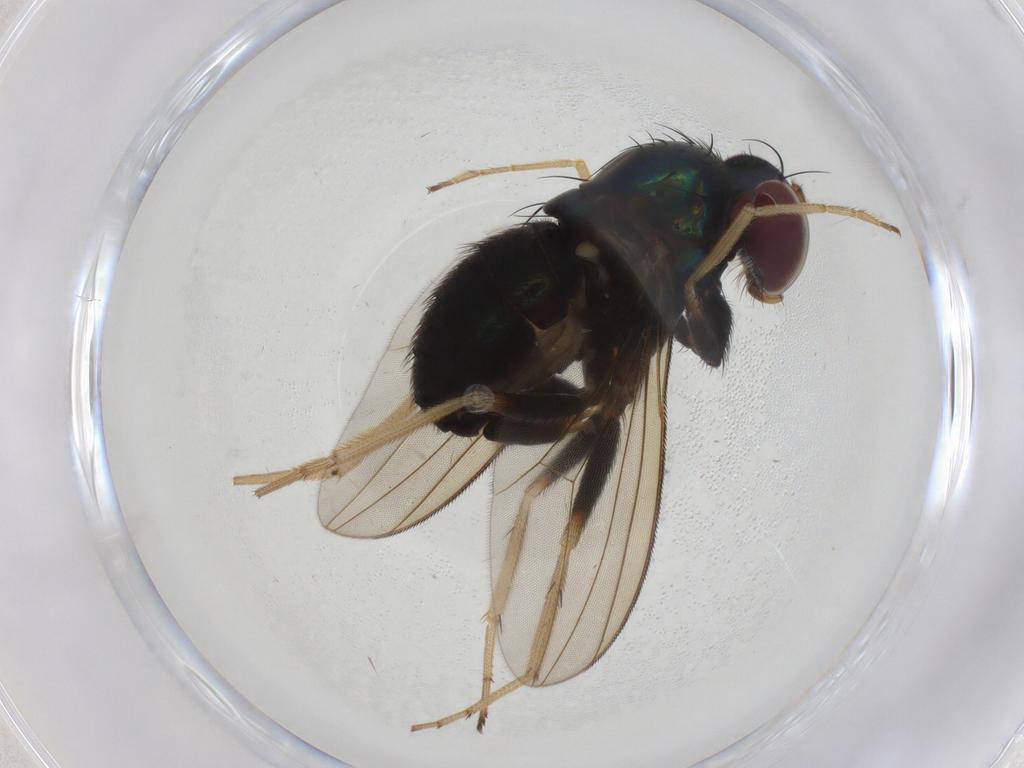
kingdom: Animalia
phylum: Arthropoda
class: Insecta
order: Diptera
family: Dolichopodidae
